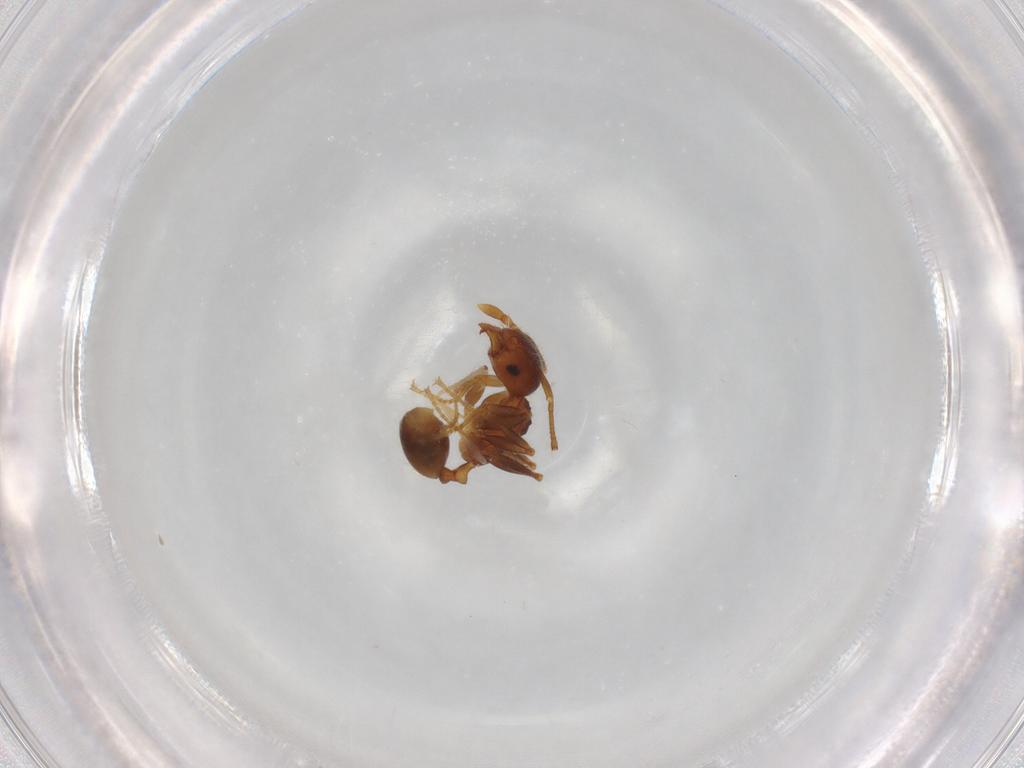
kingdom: Animalia
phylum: Arthropoda
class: Insecta
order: Hymenoptera
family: Formicidae
